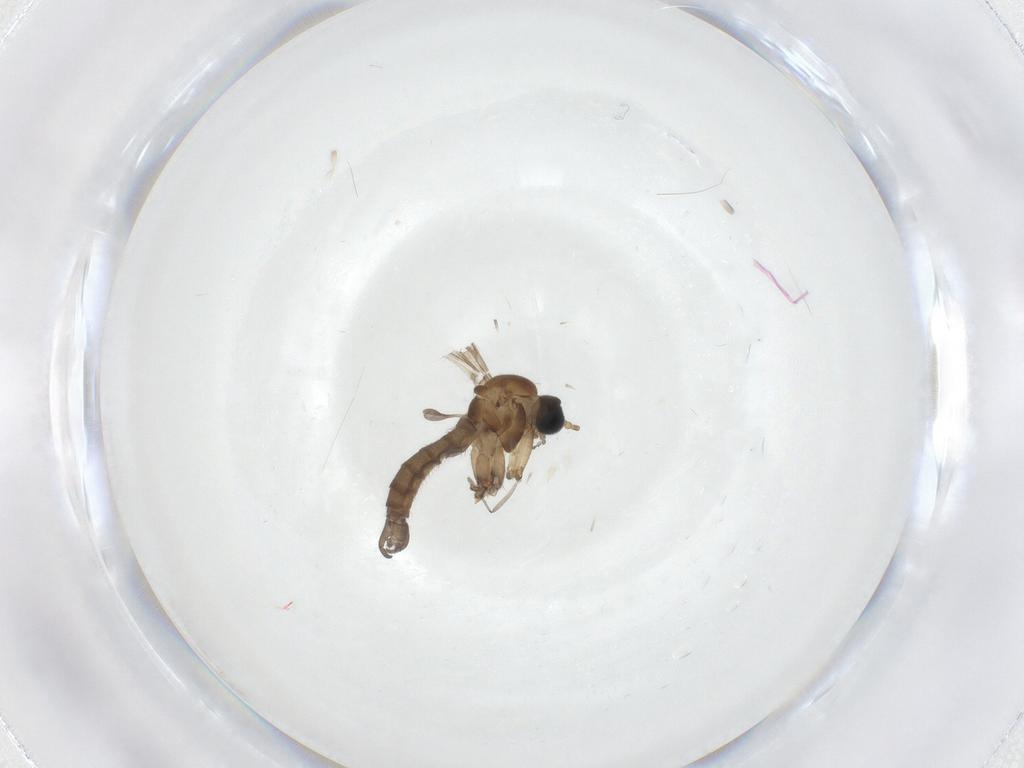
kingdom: Animalia
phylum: Arthropoda
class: Insecta
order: Diptera
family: Sciaridae
